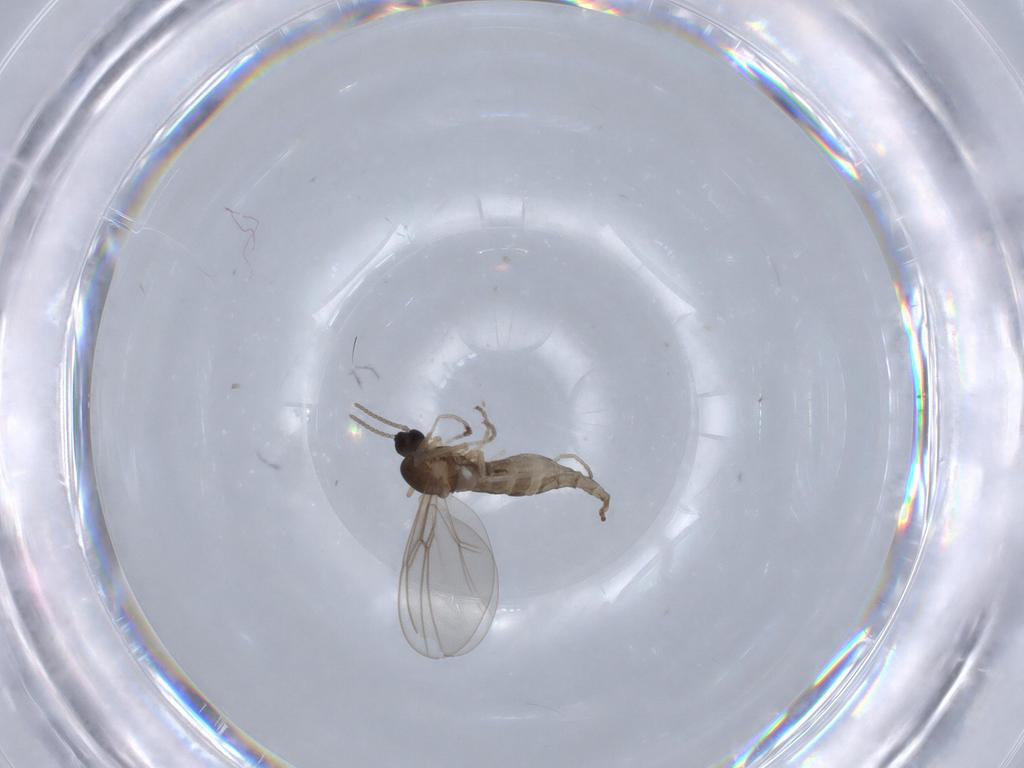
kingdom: Animalia
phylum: Arthropoda
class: Insecta
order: Diptera
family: Cecidomyiidae
